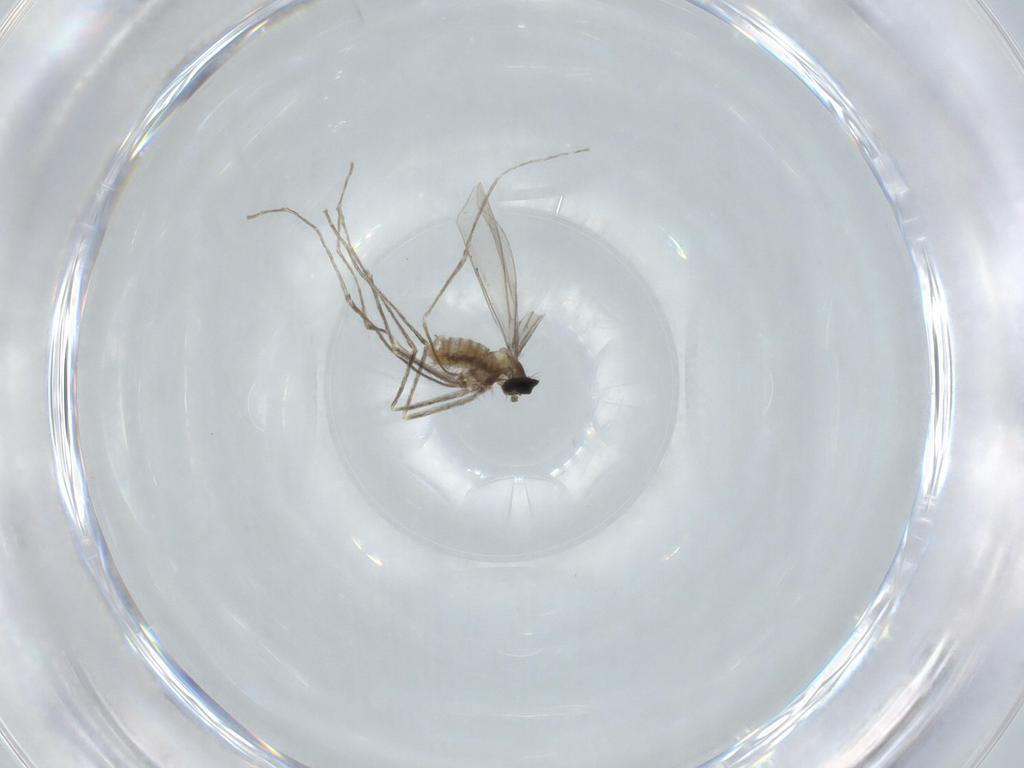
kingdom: Animalia
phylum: Arthropoda
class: Insecta
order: Diptera
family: Cecidomyiidae
